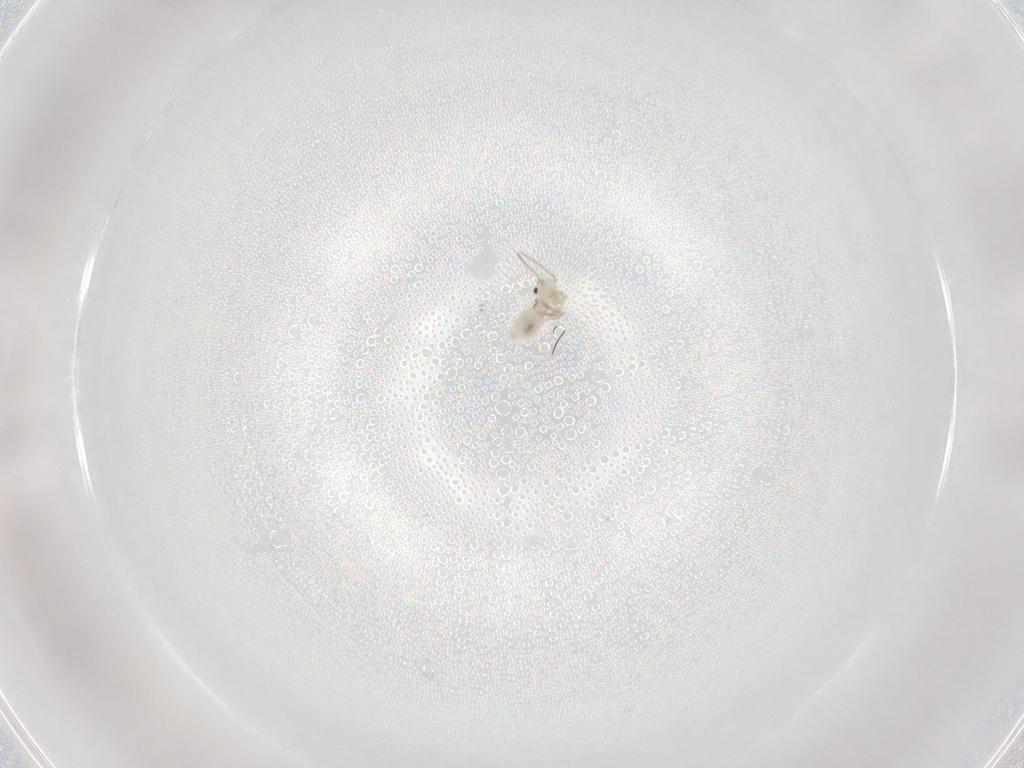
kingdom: Animalia
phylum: Arthropoda
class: Insecta
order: Psocodea
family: Caeciliusidae
